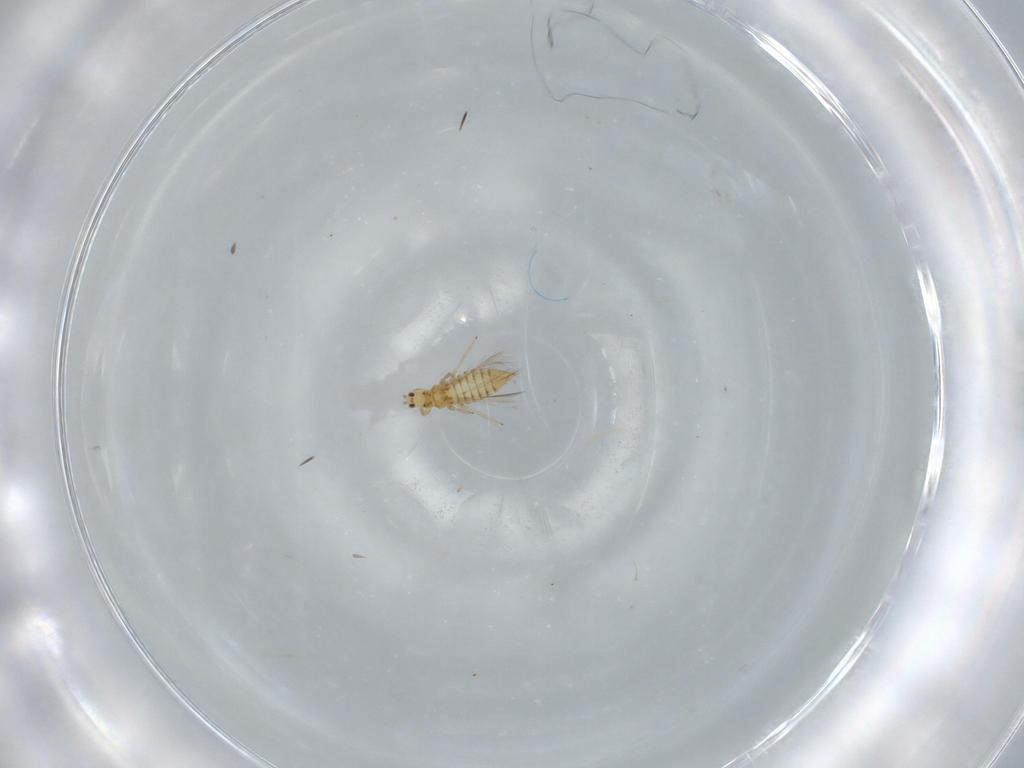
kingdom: Animalia
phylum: Arthropoda
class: Insecta
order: Thysanoptera
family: Thripidae
